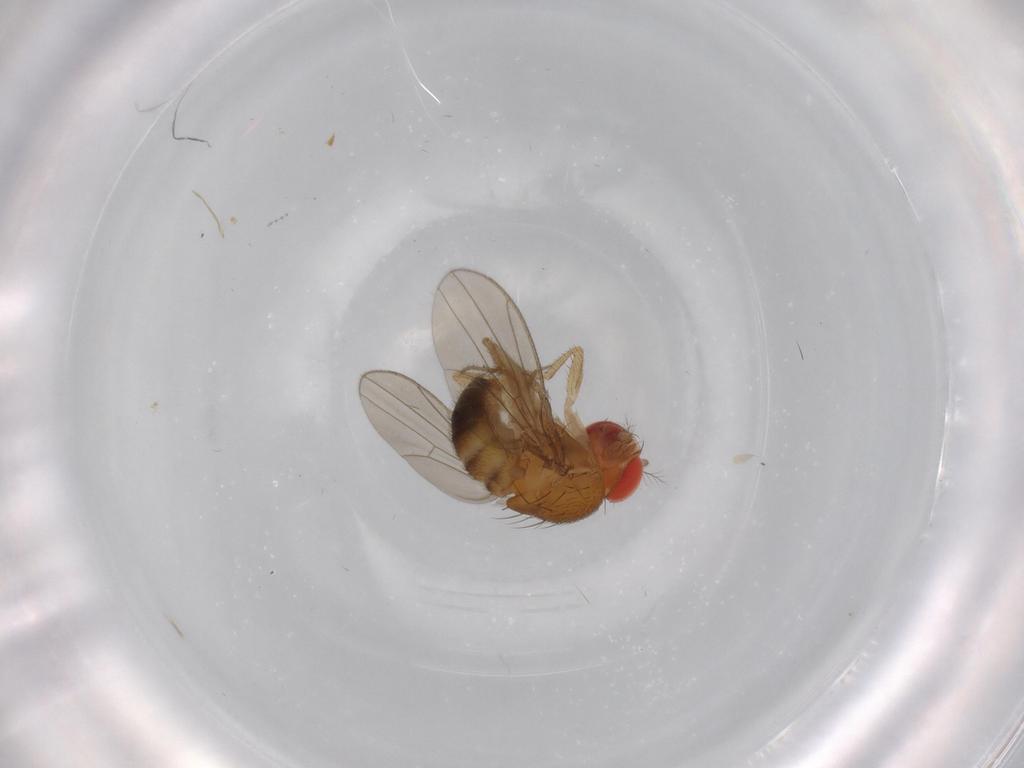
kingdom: Animalia
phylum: Arthropoda
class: Insecta
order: Diptera
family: Drosophilidae
